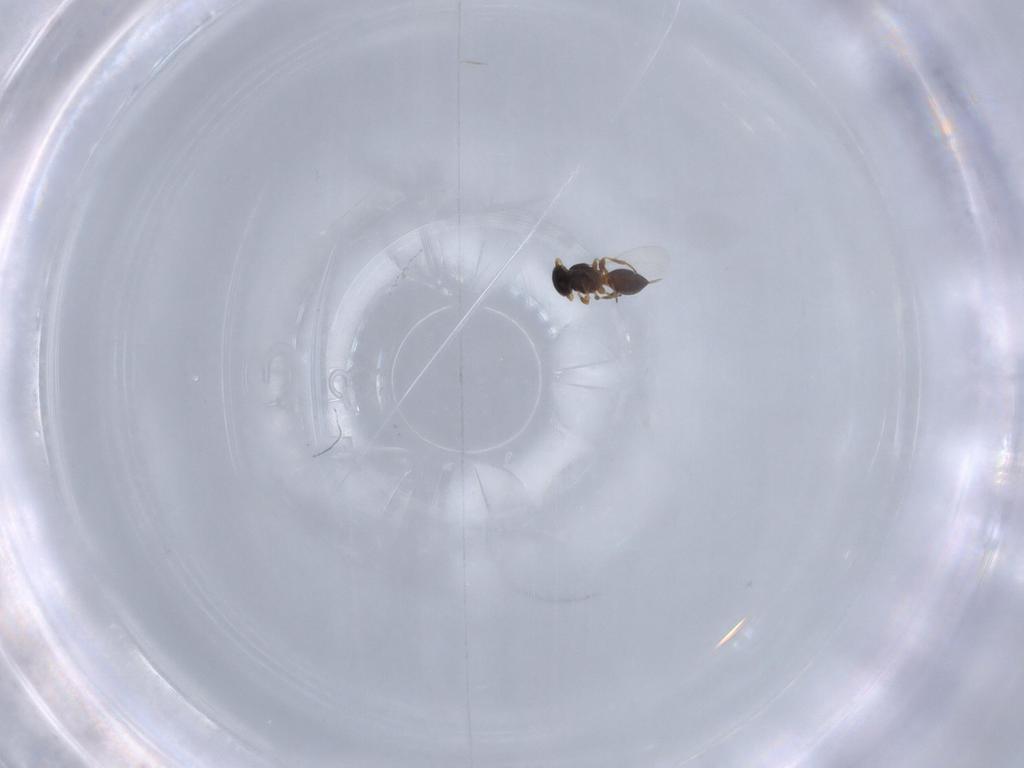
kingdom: Animalia
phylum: Arthropoda
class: Insecta
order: Hymenoptera
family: Platygastridae
